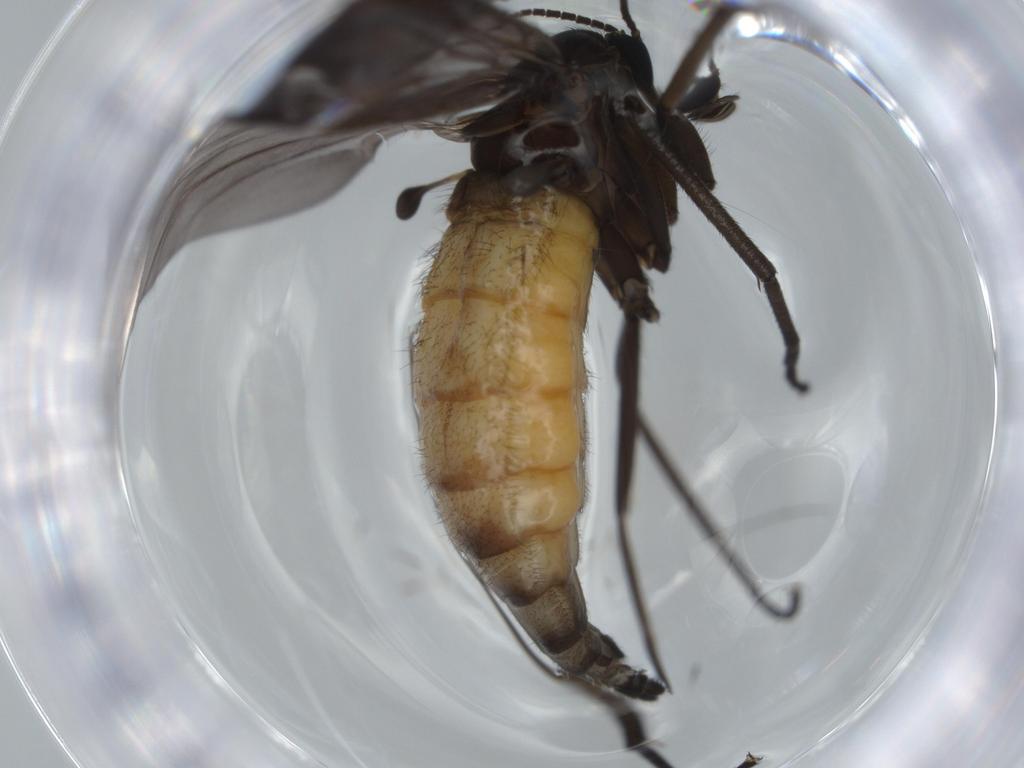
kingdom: Animalia
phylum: Arthropoda
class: Insecta
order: Diptera
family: Sciaridae
